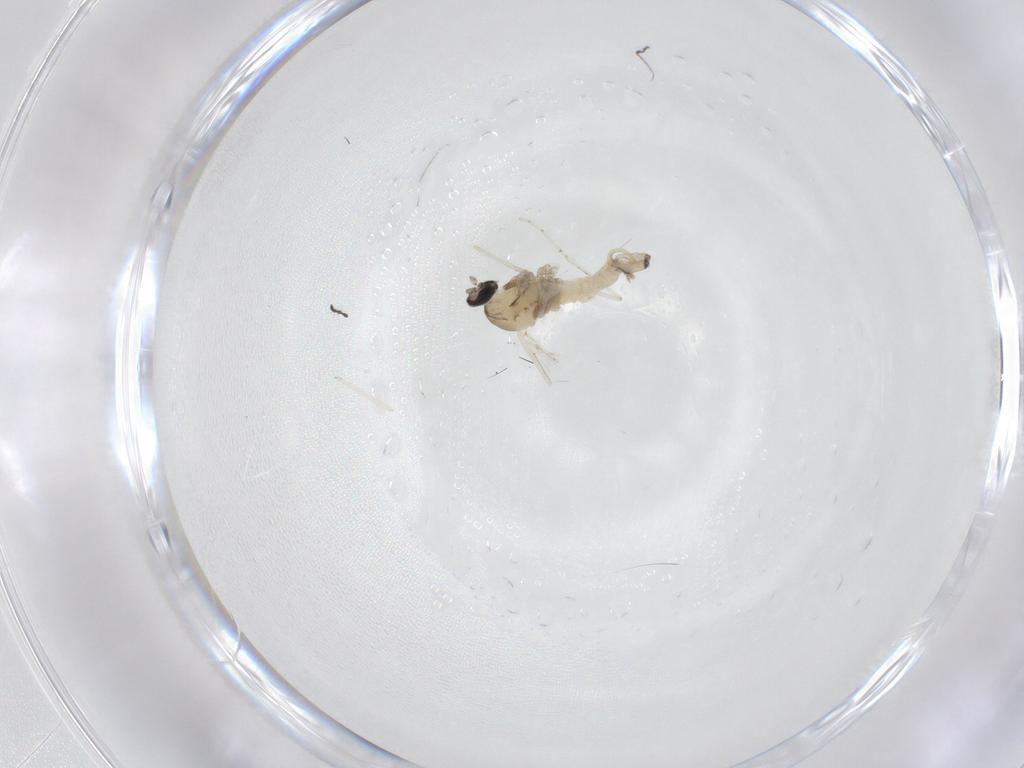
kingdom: Animalia
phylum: Arthropoda
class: Insecta
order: Diptera
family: Cecidomyiidae
